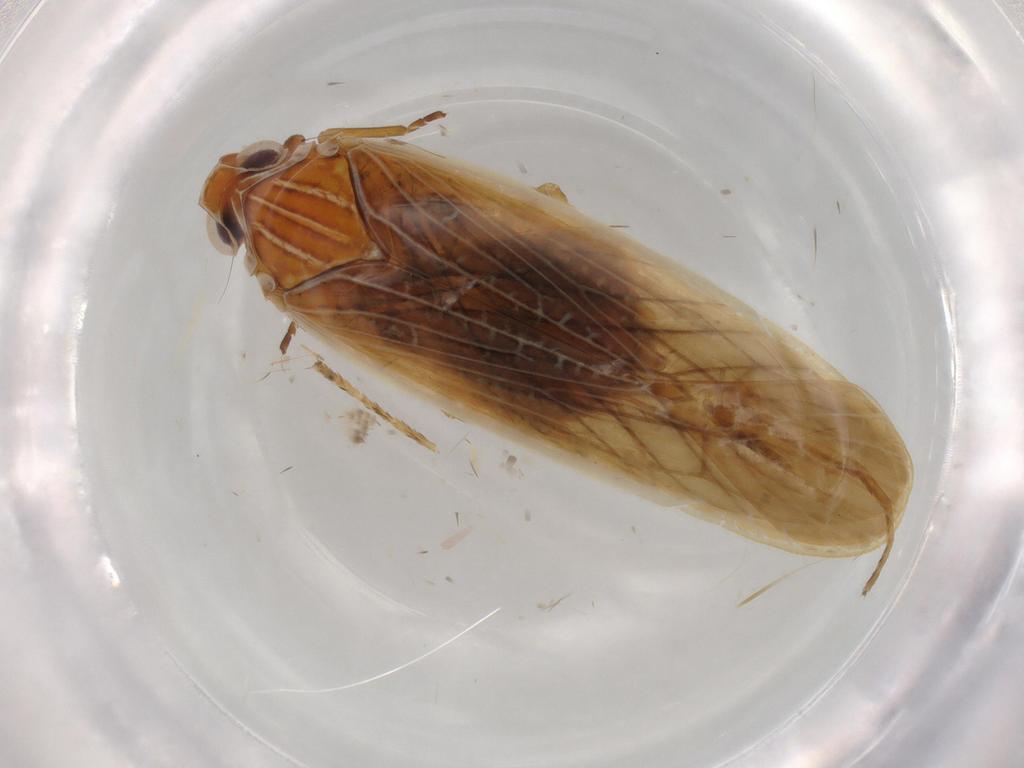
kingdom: Animalia
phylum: Arthropoda
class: Insecta
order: Hemiptera
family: Achilidae
